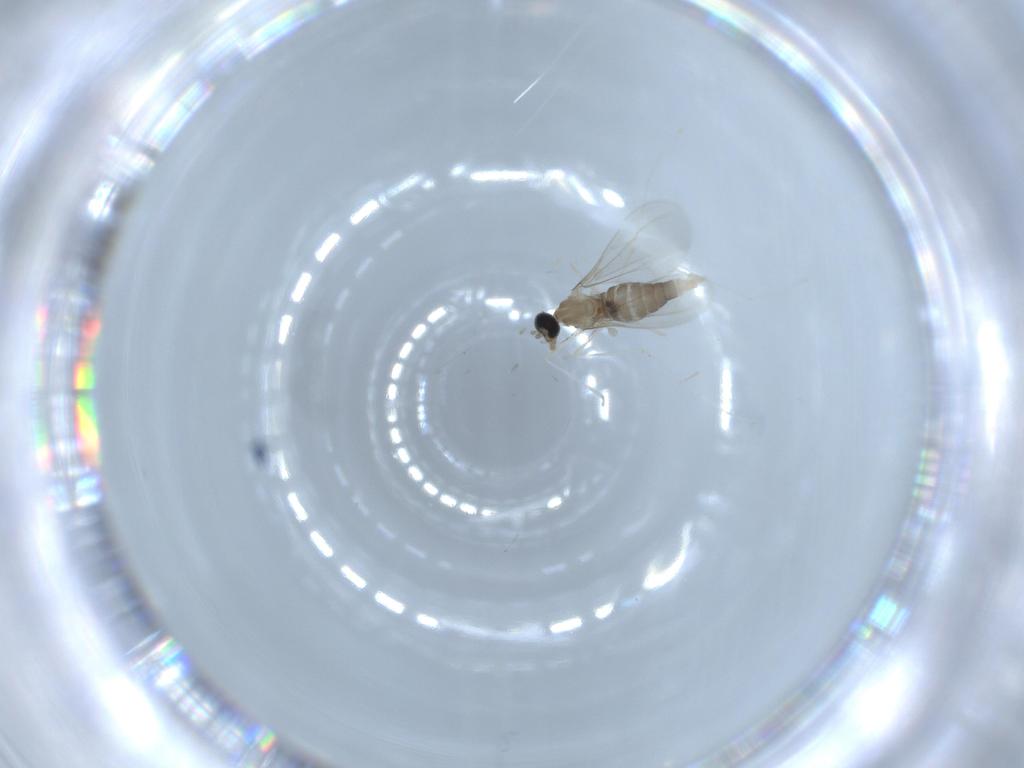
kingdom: Animalia
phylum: Arthropoda
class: Insecta
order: Diptera
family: Cecidomyiidae
